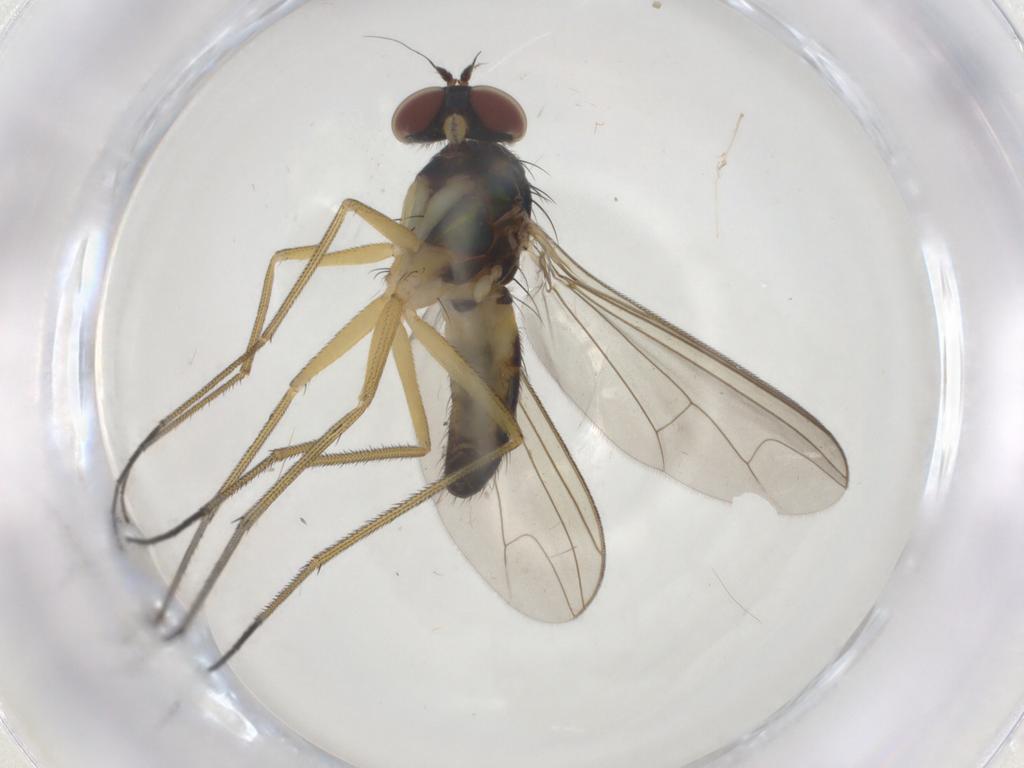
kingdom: Animalia
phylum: Arthropoda
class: Insecta
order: Diptera
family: Dolichopodidae
